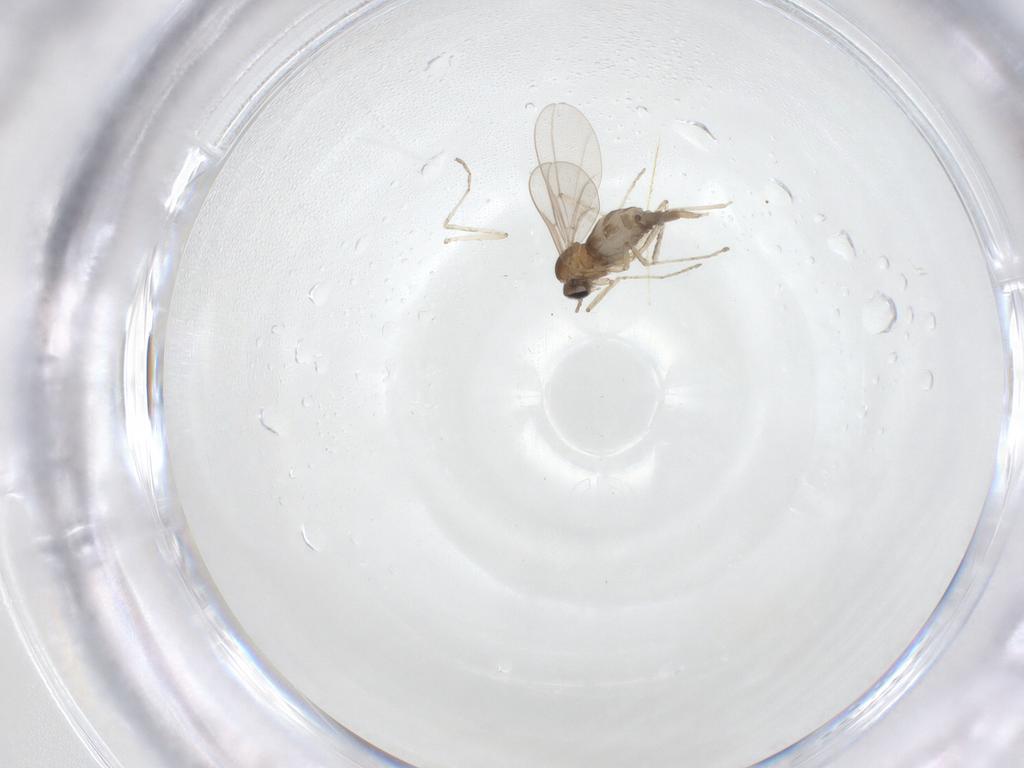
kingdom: Animalia
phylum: Arthropoda
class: Insecta
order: Diptera
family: Cecidomyiidae
